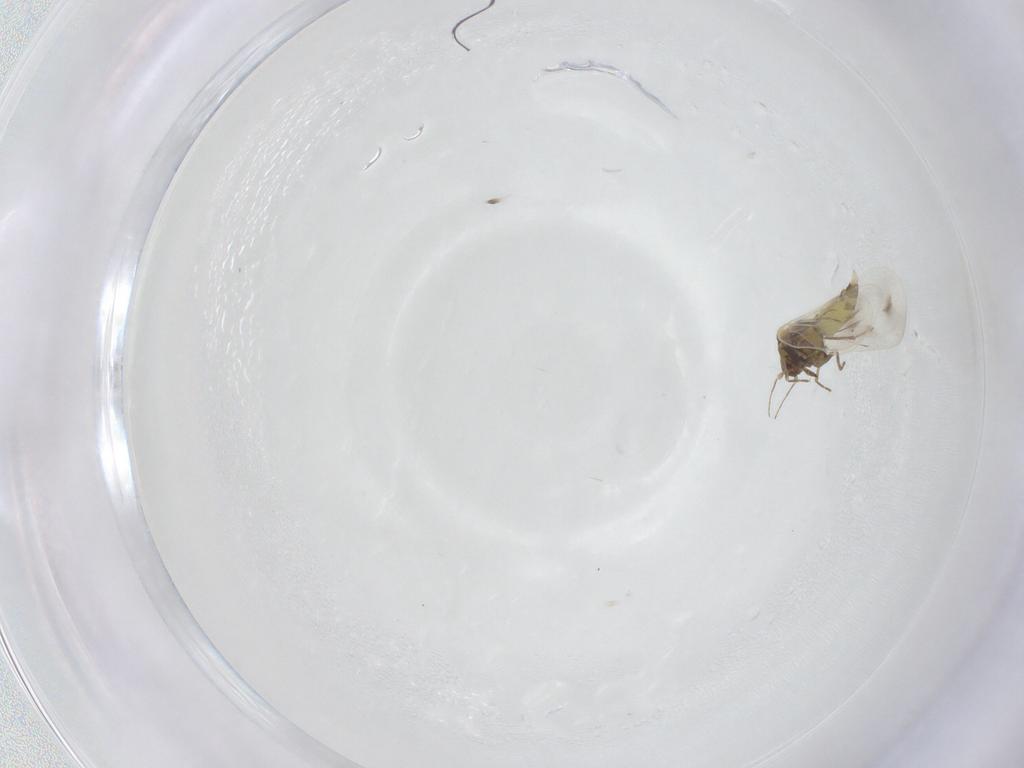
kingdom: Animalia
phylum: Arthropoda
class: Insecta
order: Hemiptera
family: Aleyrodidae
